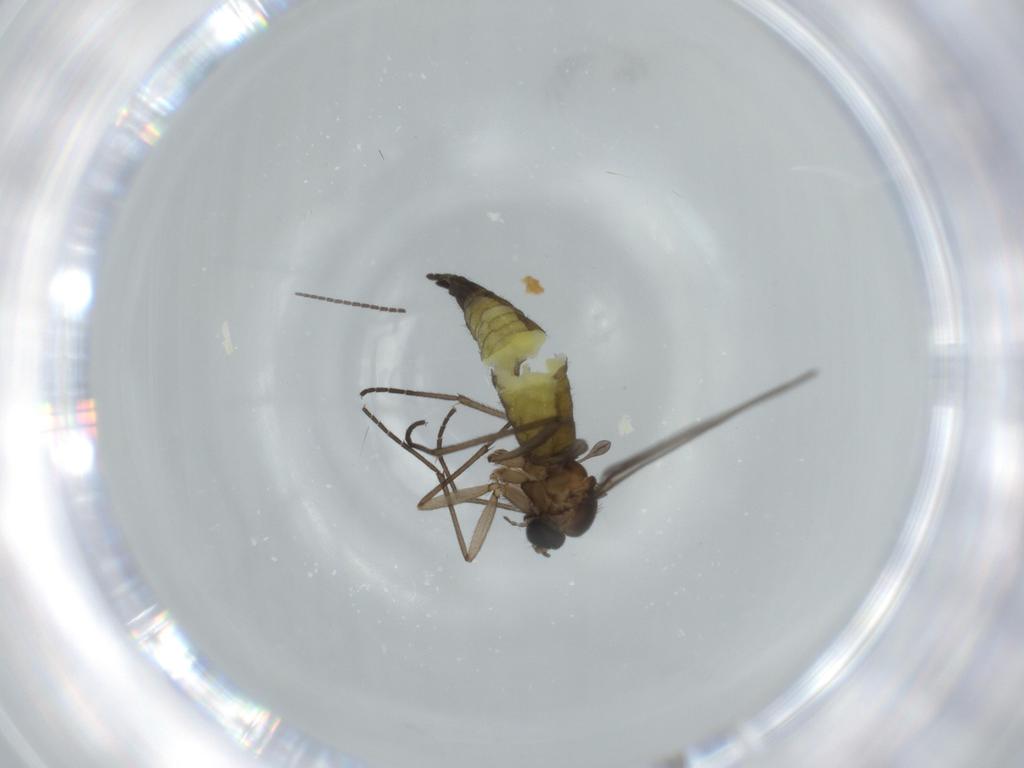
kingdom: Animalia
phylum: Arthropoda
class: Insecta
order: Diptera
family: Sciaridae
